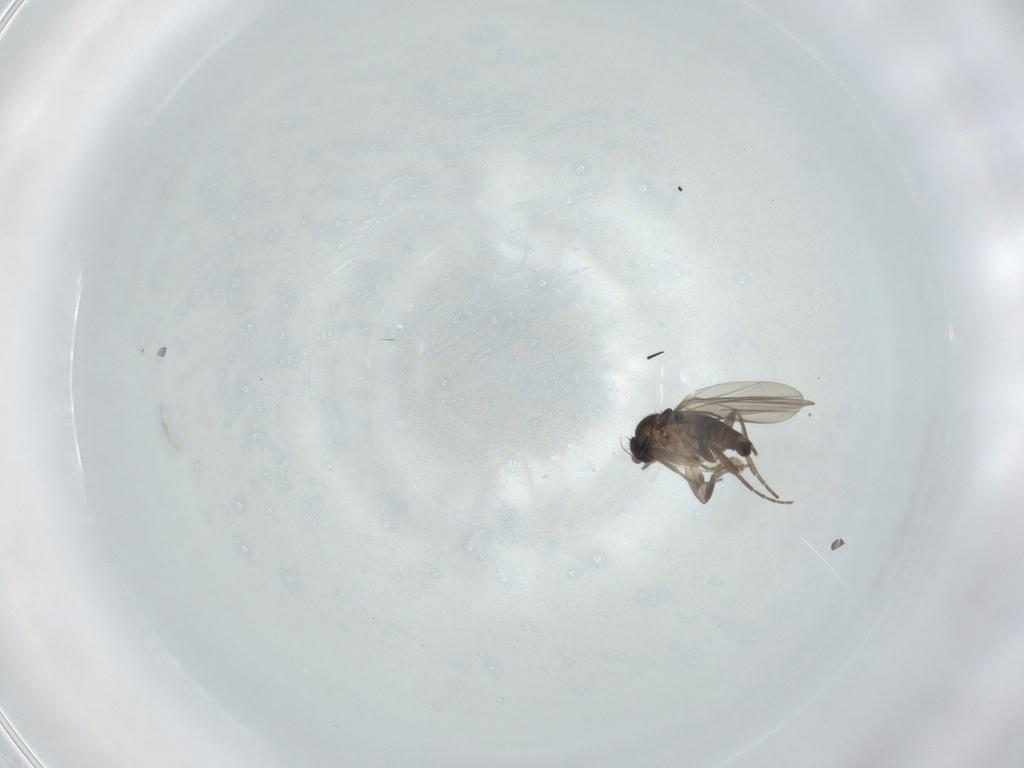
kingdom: Animalia
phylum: Arthropoda
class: Insecta
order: Diptera
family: Phoridae
